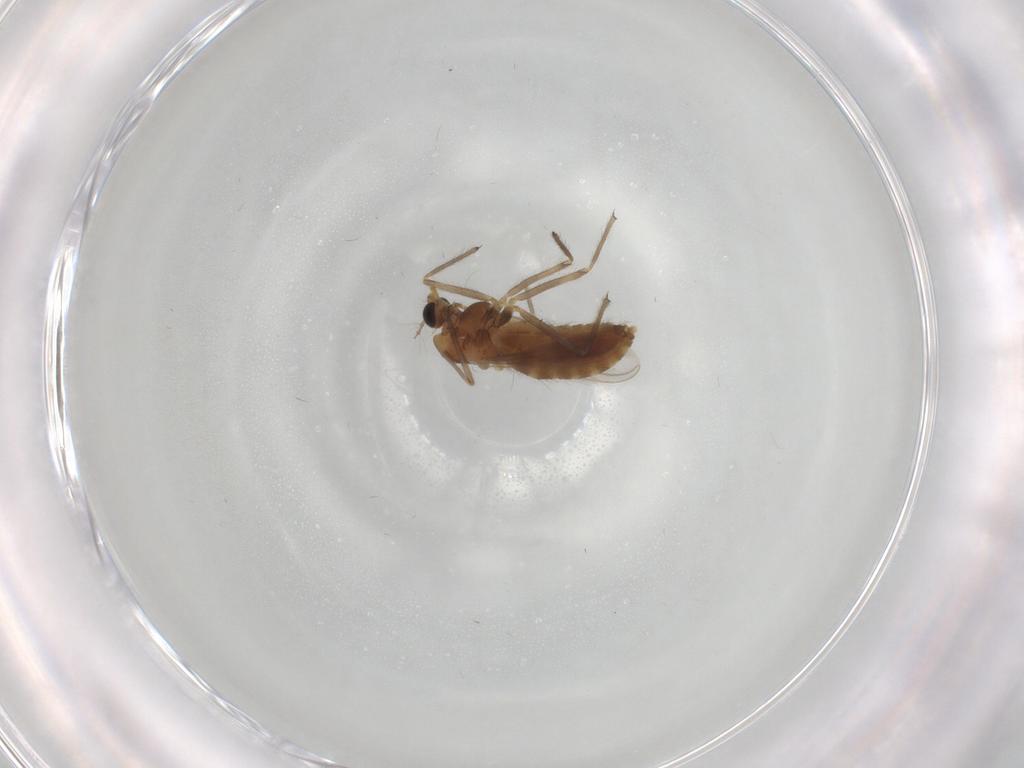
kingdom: Animalia
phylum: Arthropoda
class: Insecta
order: Diptera
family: Chironomidae
